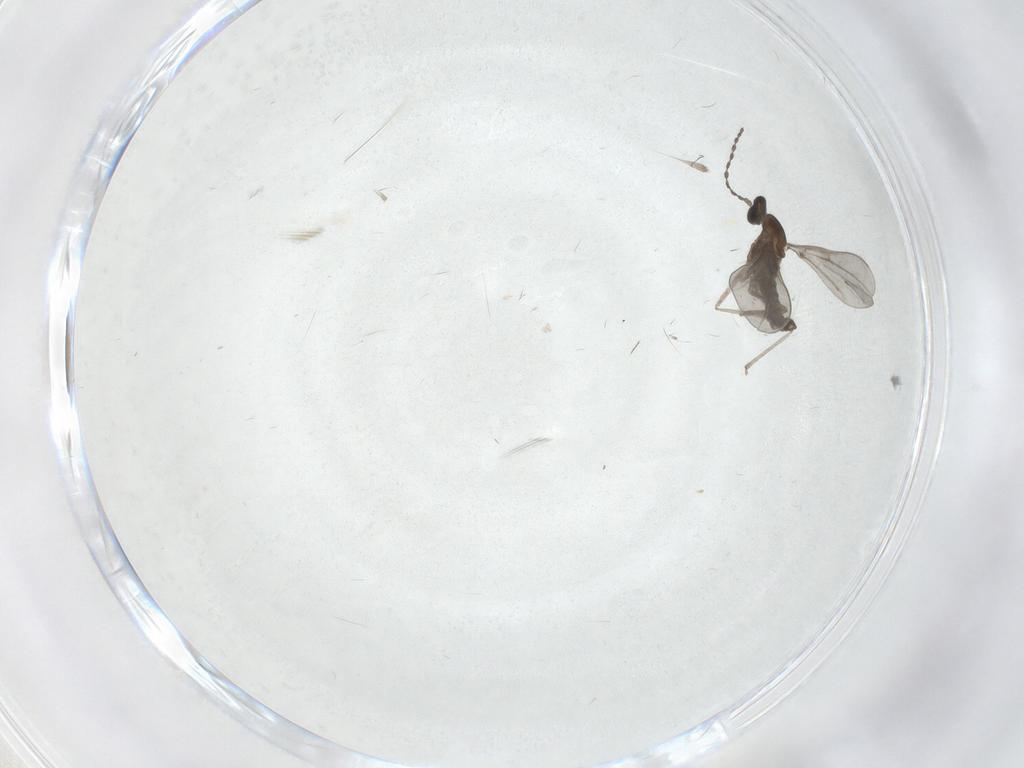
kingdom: Animalia
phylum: Arthropoda
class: Insecta
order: Diptera
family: Cecidomyiidae
